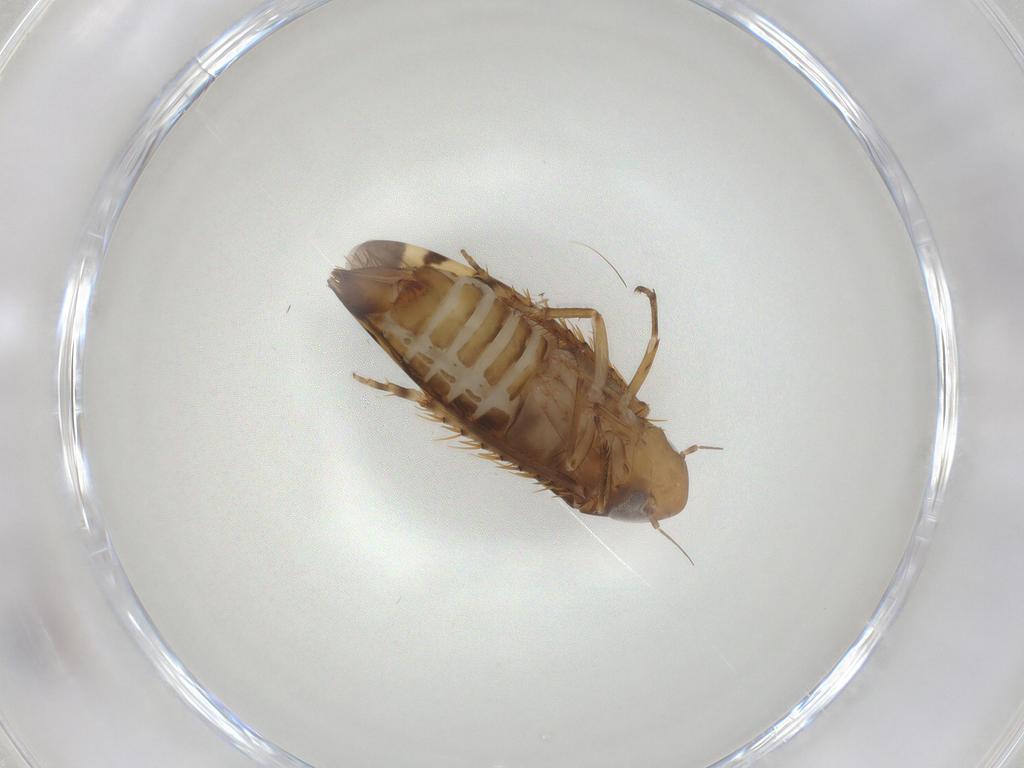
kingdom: Animalia
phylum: Arthropoda
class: Insecta
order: Hemiptera
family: Cicadellidae
